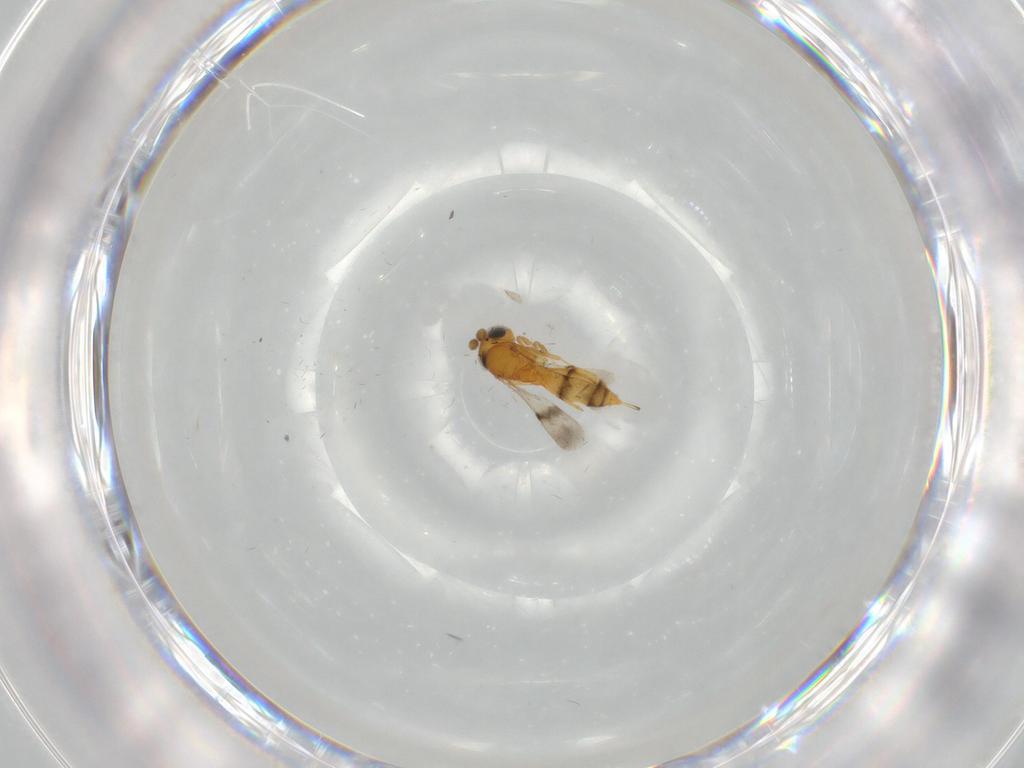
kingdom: Animalia
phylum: Arthropoda
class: Insecta
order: Hymenoptera
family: Scelionidae
